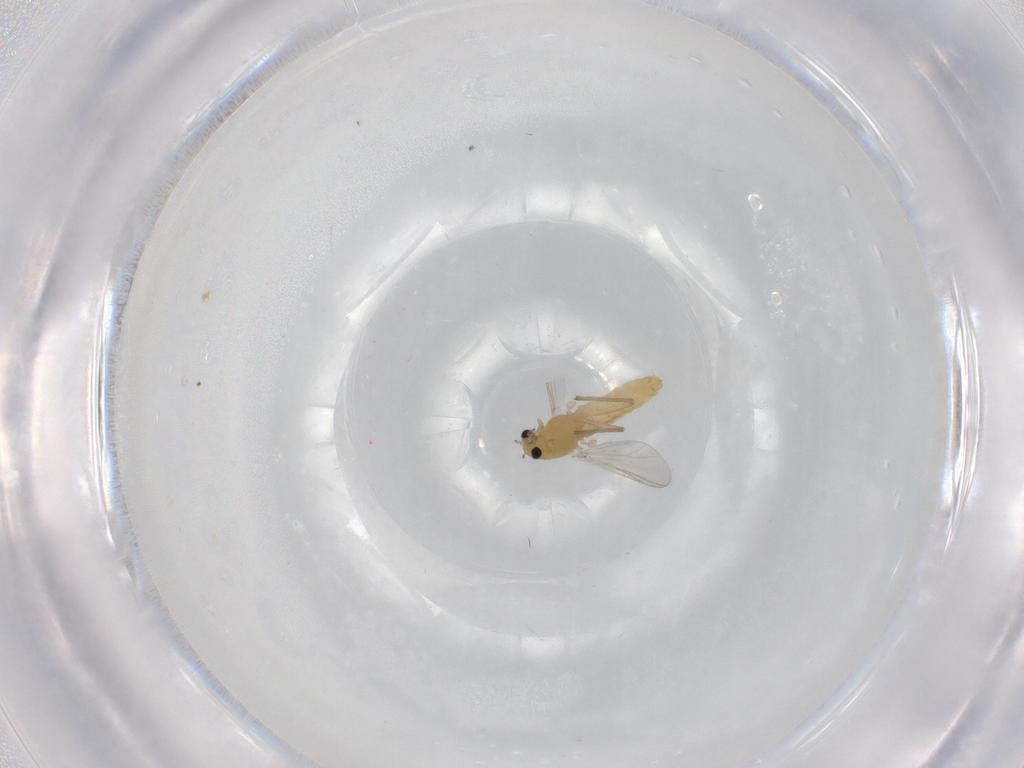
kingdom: Animalia
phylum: Arthropoda
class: Insecta
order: Diptera
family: Chironomidae
